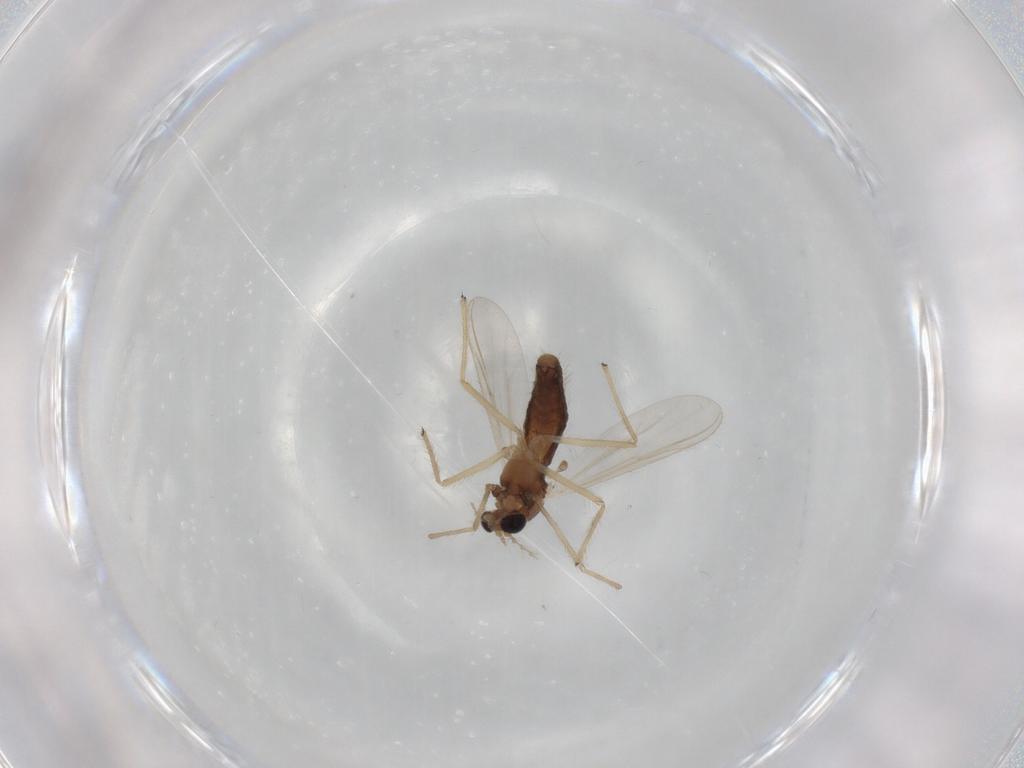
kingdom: Animalia
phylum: Arthropoda
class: Insecta
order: Diptera
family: Chironomidae
